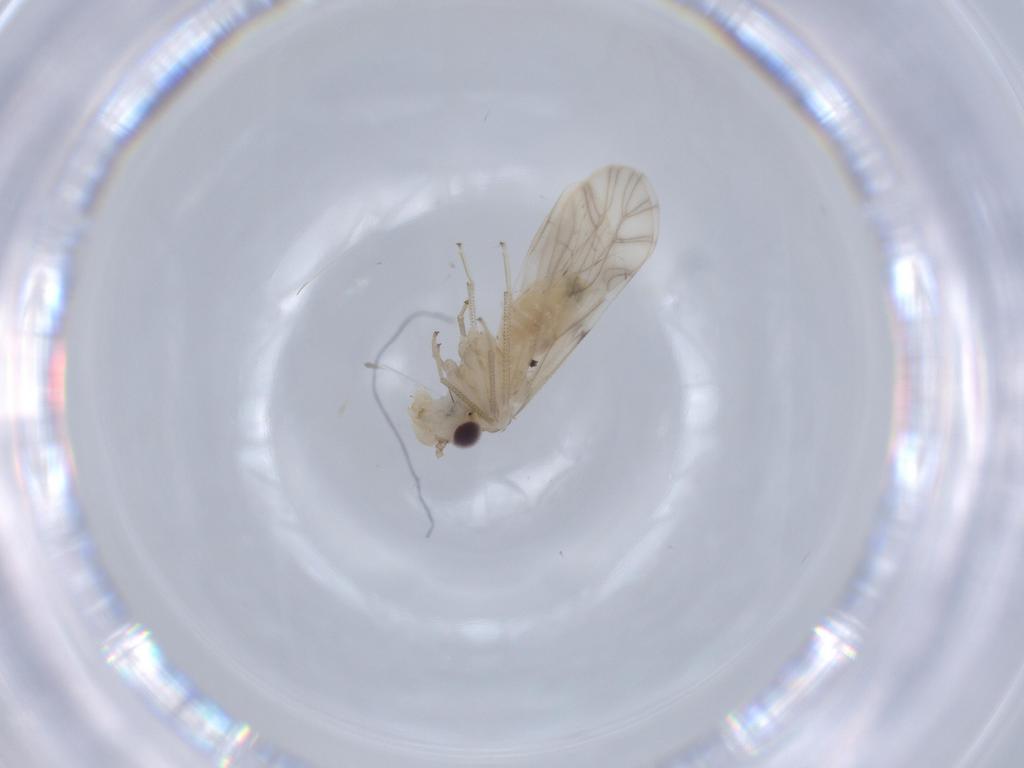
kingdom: Animalia
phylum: Arthropoda
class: Insecta
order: Psocodea
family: Caeciliusidae
